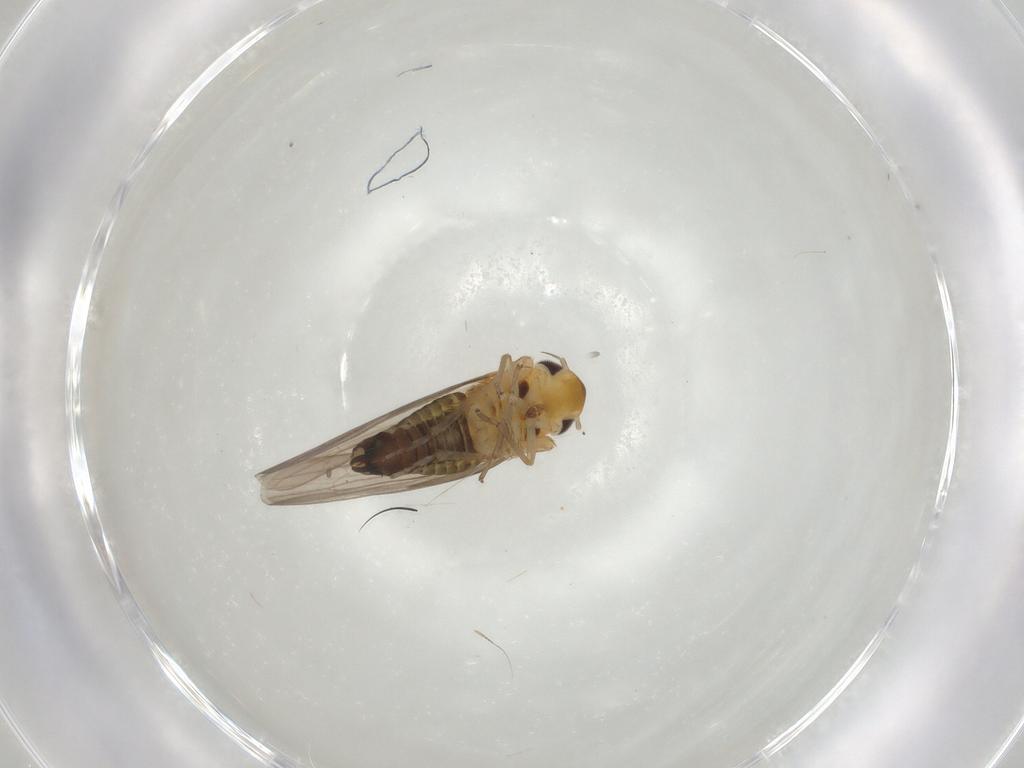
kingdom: Animalia
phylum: Arthropoda
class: Insecta
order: Hemiptera
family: Cicadellidae
